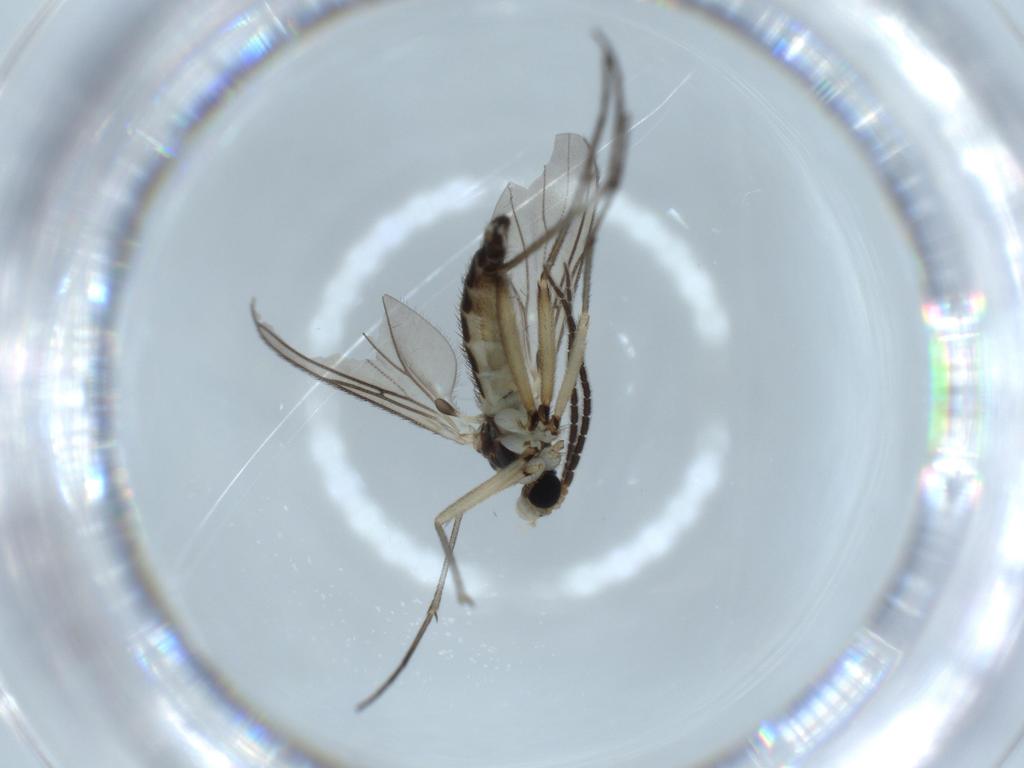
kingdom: Animalia
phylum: Arthropoda
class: Insecta
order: Diptera
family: Sciaridae
